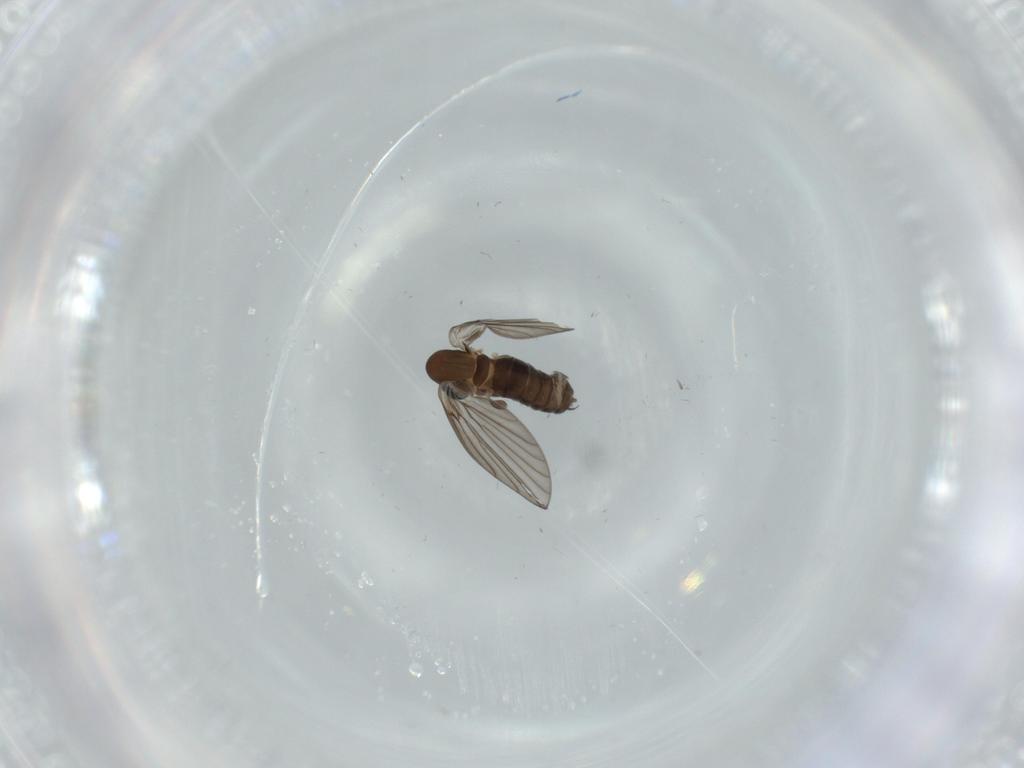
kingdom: Animalia
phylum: Arthropoda
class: Insecta
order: Diptera
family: Psychodidae
